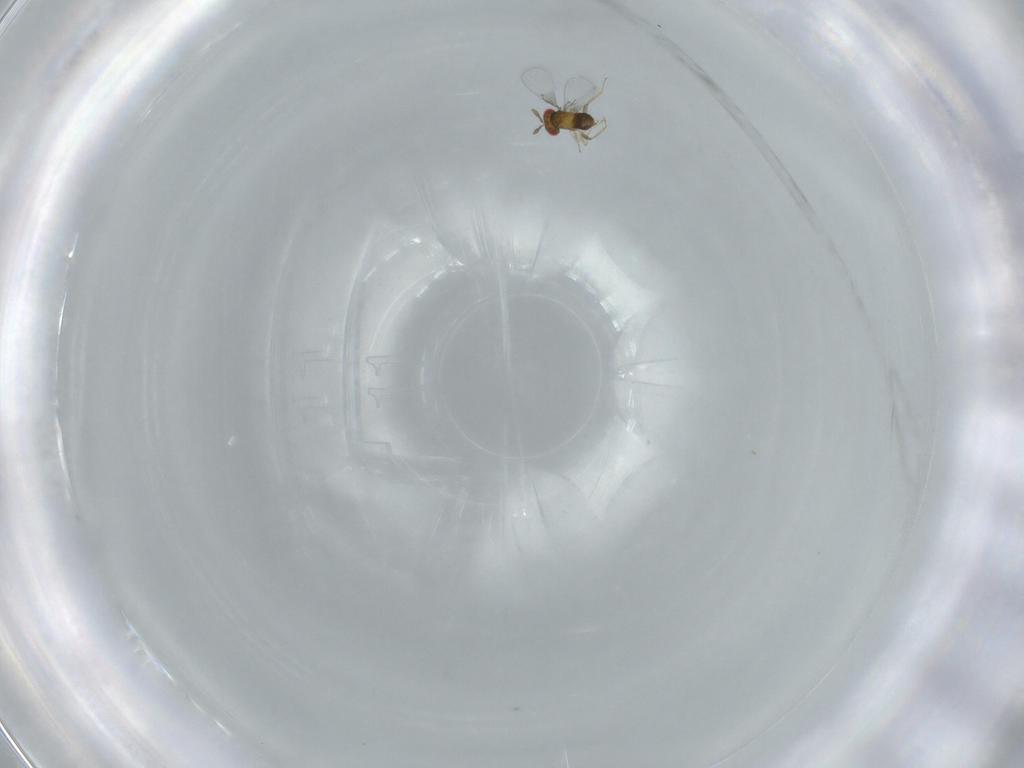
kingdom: Animalia
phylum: Arthropoda
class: Insecta
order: Hymenoptera
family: Trichogrammatidae
